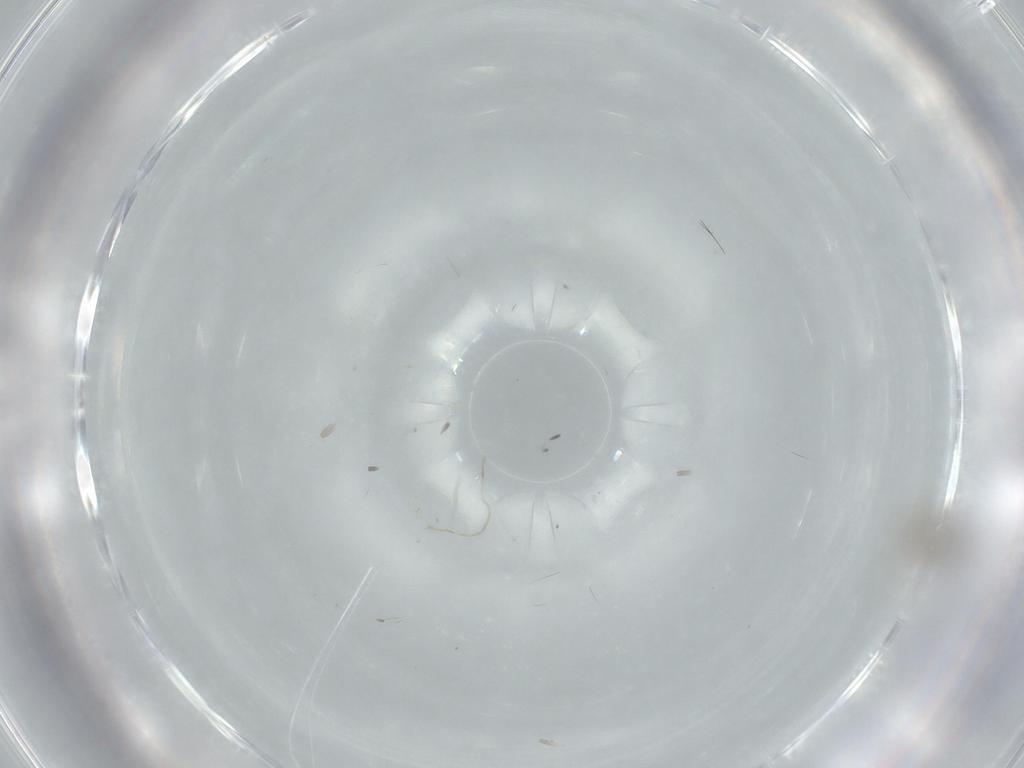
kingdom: Animalia
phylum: Arthropoda
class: Insecta
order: Diptera
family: Cecidomyiidae
